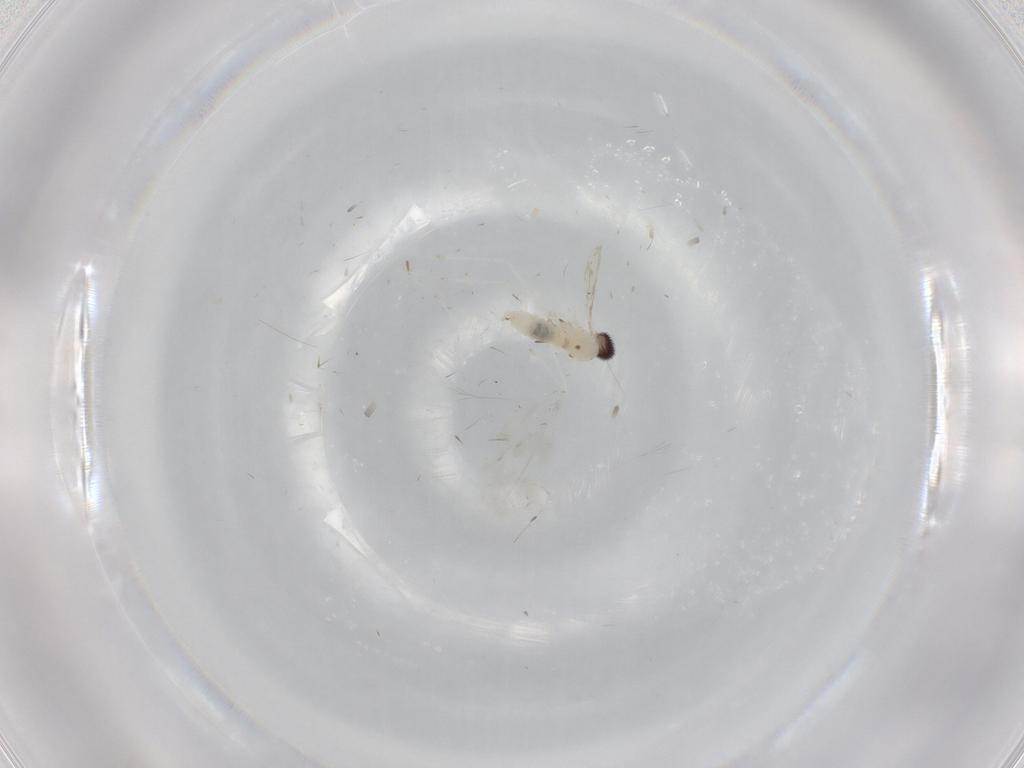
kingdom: Animalia
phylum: Arthropoda
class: Insecta
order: Diptera
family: Cecidomyiidae
